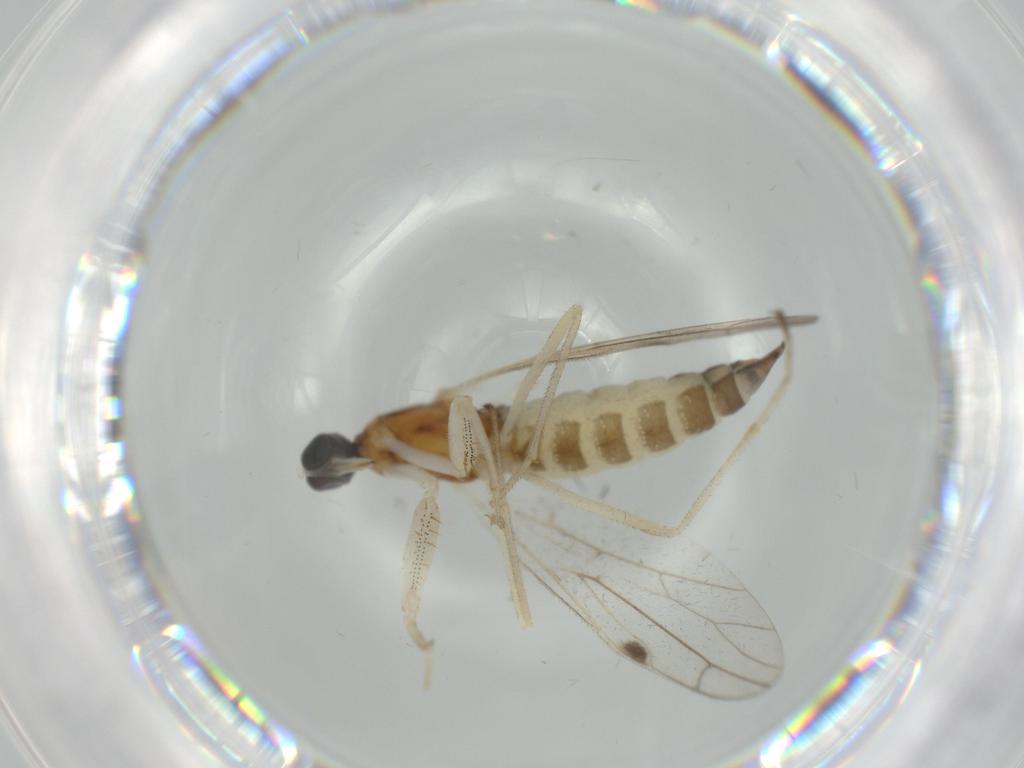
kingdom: Animalia
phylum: Arthropoda
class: Insecta
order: Diptera
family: Empididae
